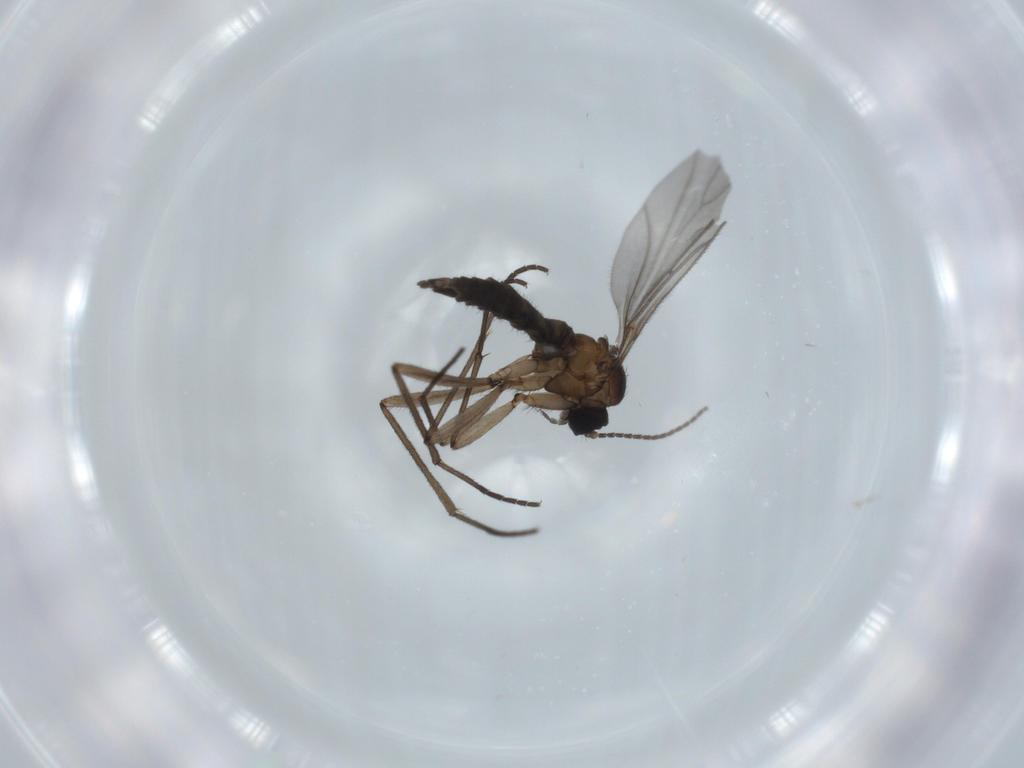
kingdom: Animalia
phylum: Arthropoda
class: Insecta
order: Diptera
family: Sciaridae
